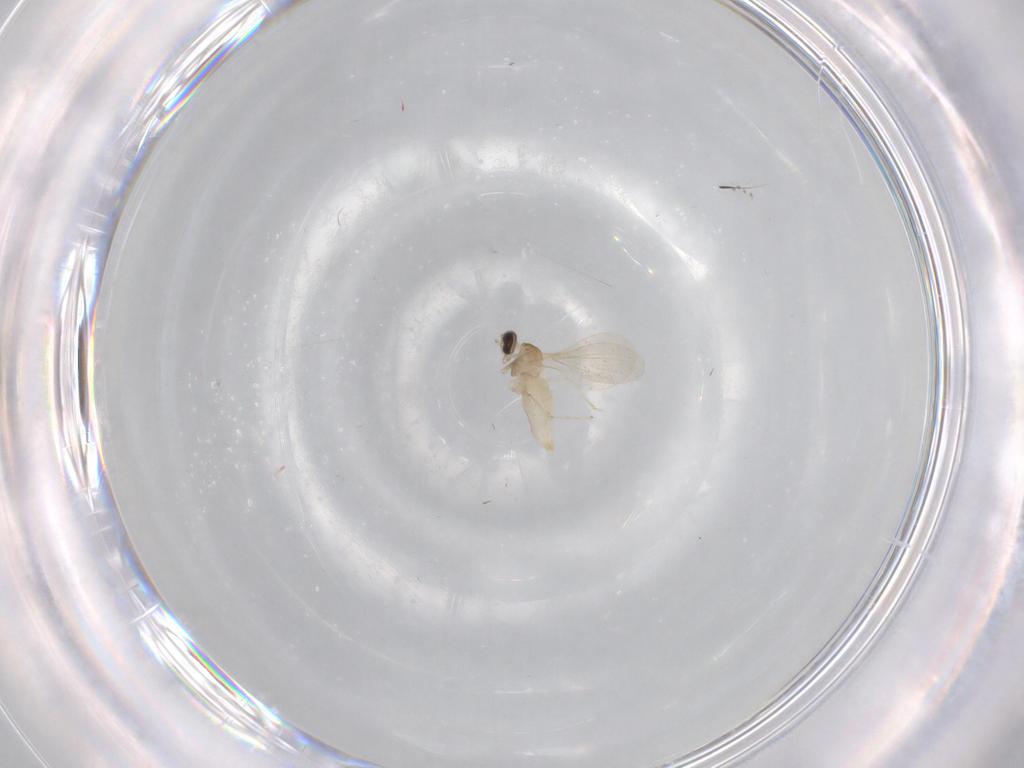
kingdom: Animalia
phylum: Arthropoda
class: Insecta
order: Diptera
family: Cecidomyiidae
